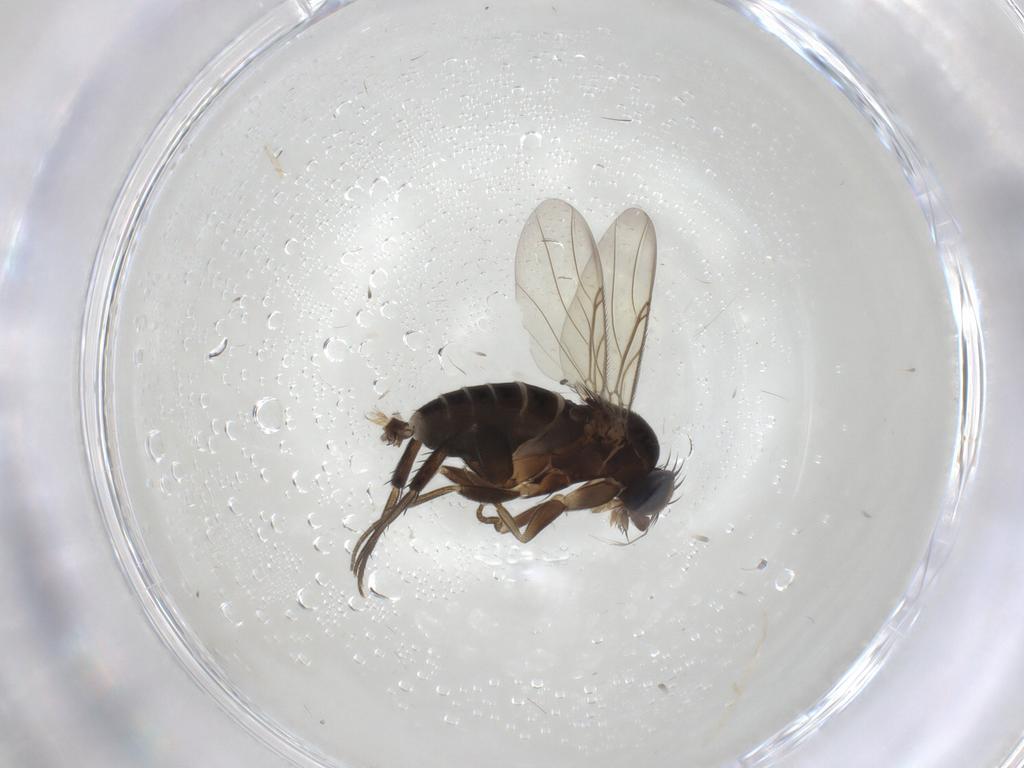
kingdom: Animalia
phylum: Arthropoda
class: Insecta
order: Diptera
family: Phoridae
